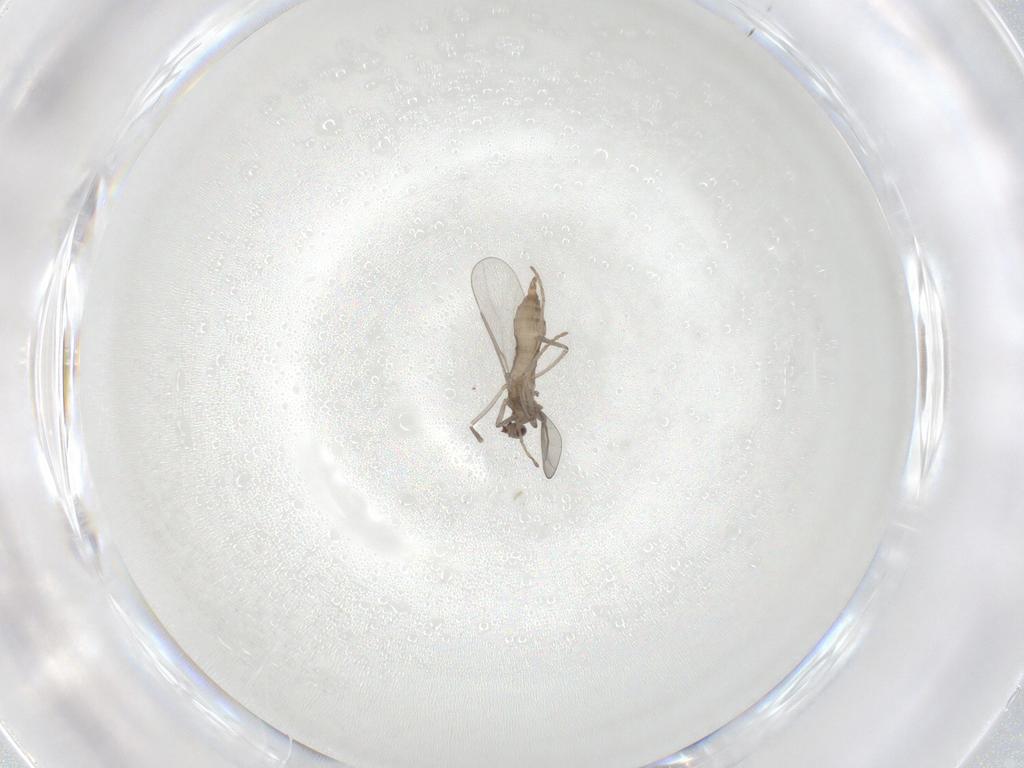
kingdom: Animalia
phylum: Arthropoda
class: Insecta
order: Diptera
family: Cecidomyiidae
